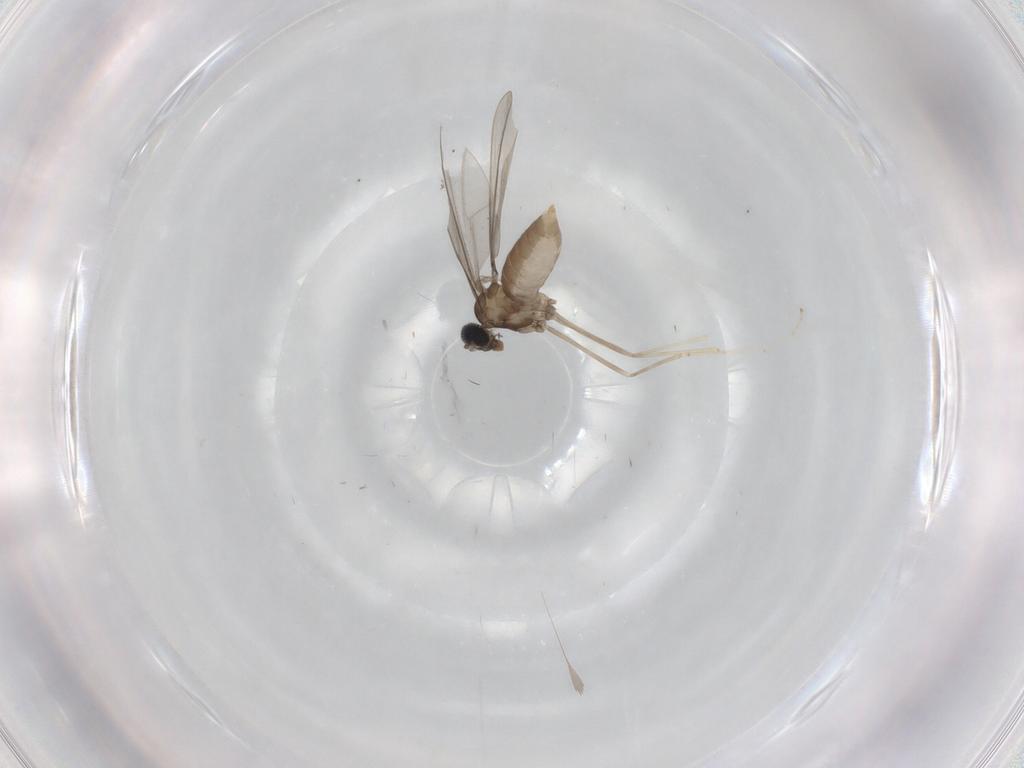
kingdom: Animalia
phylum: Arthropoda
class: Insecta
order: Diptera
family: Cecidomyiidae
